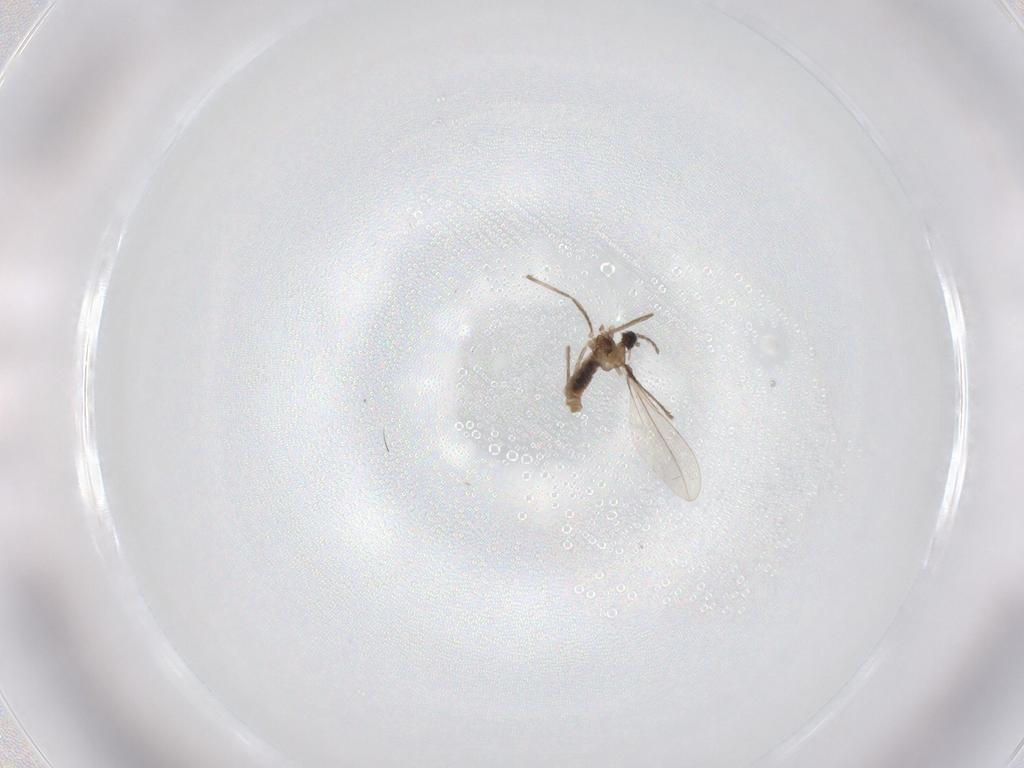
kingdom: Animalia
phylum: Arthropoda
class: Insecta
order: Diptera
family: Cecidomyiidae
